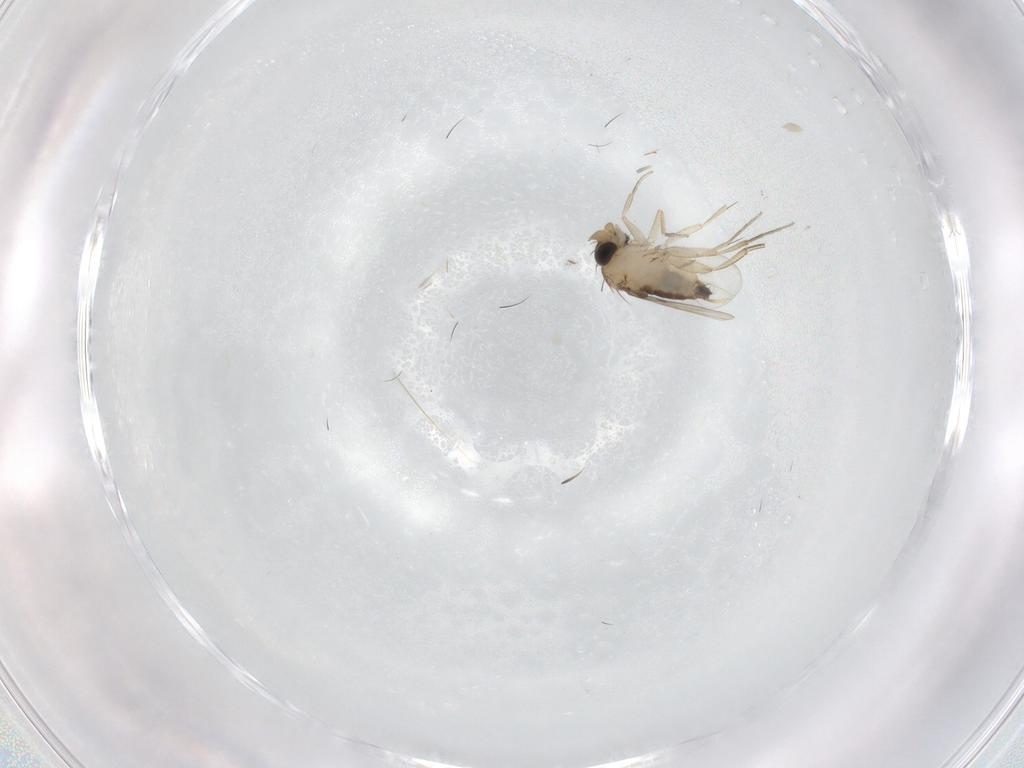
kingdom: Animalia
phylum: Arthropoda
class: Insecta
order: Diptera
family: Phoridae
